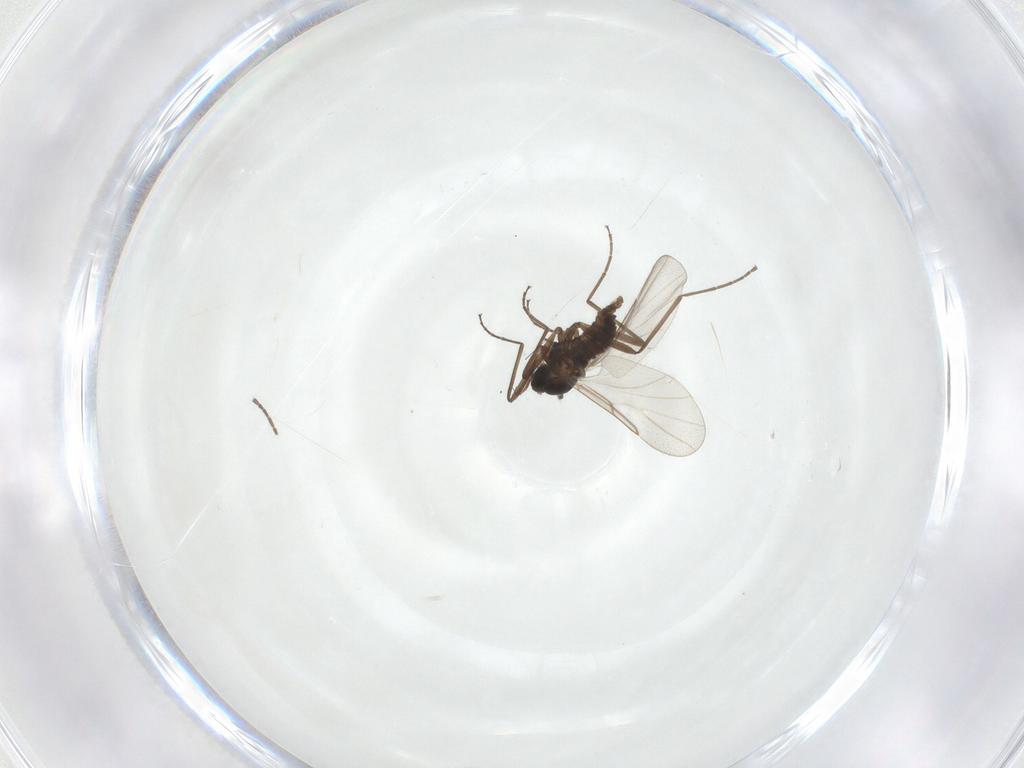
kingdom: Animalia
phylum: Arthropoda
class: Insecta
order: Diptera
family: Cecidomyiidae
